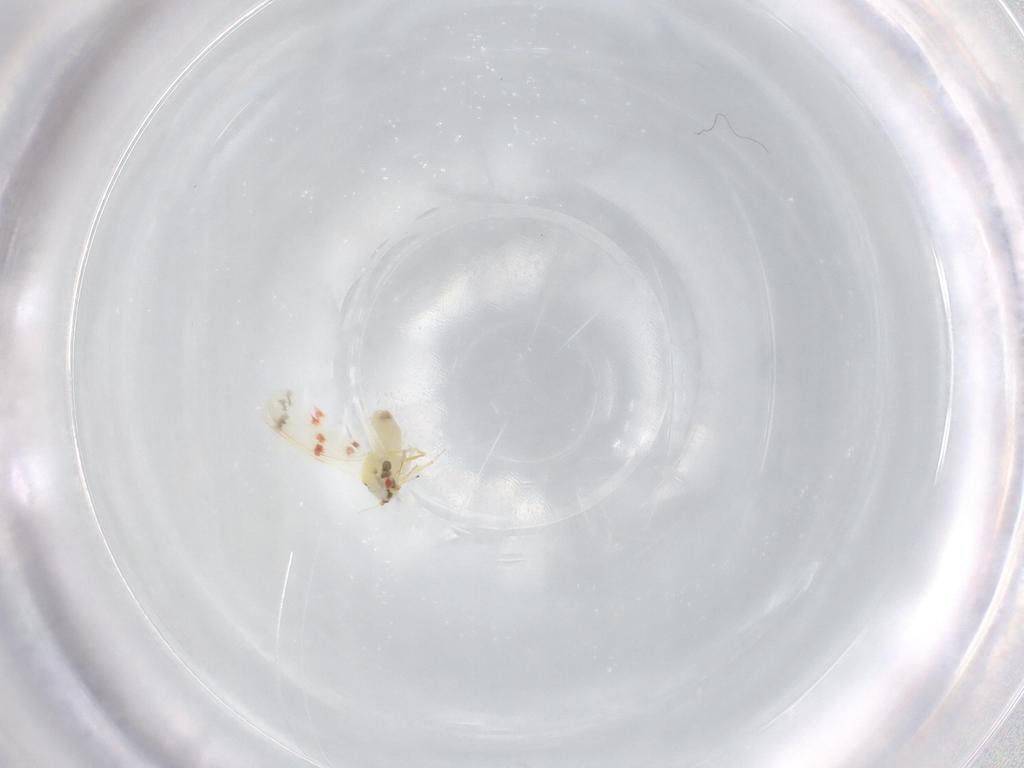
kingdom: Animalia
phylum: Arthropoda
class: Insecta
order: Hemiptera
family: Aleyrodidae
